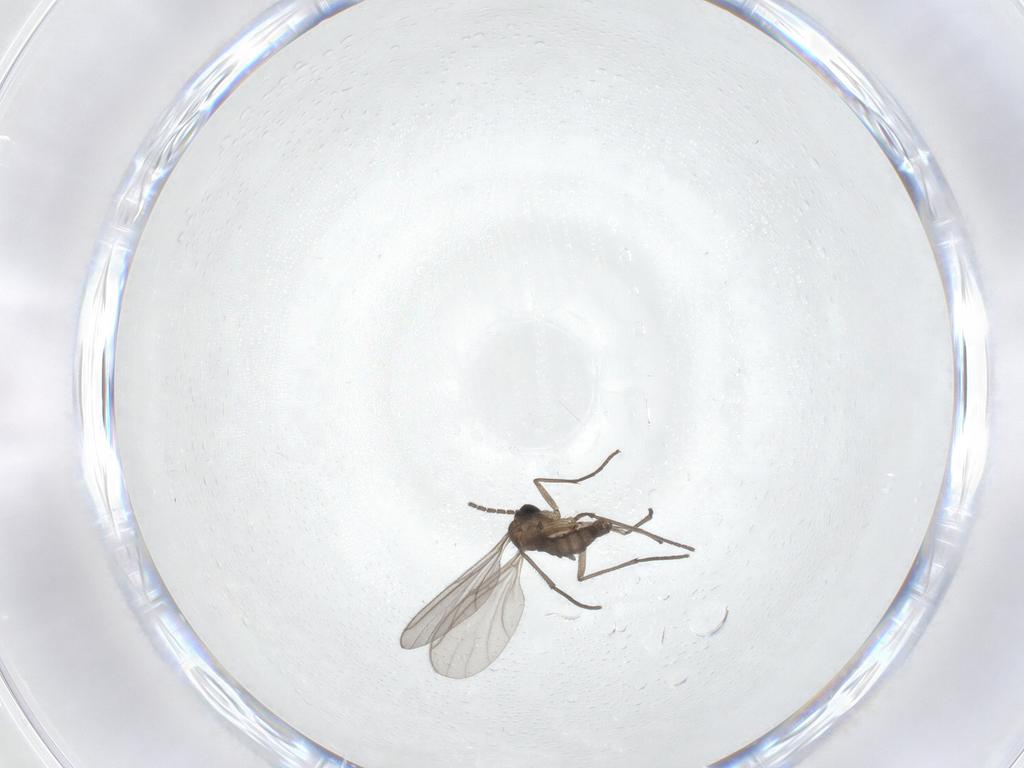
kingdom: Animalia
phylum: Arthropoda
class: Insecta
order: Diptera
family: Sciaridae
